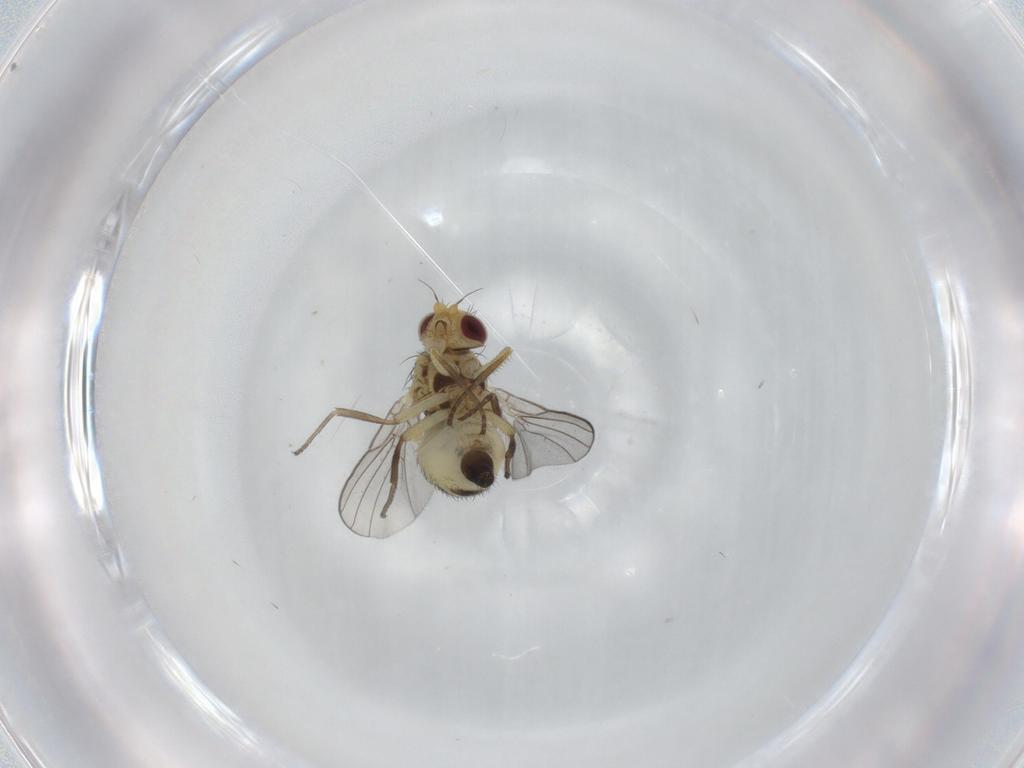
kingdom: Animalia
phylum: Arthropoda
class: Insecta
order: Diptera
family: Agromyzidae
